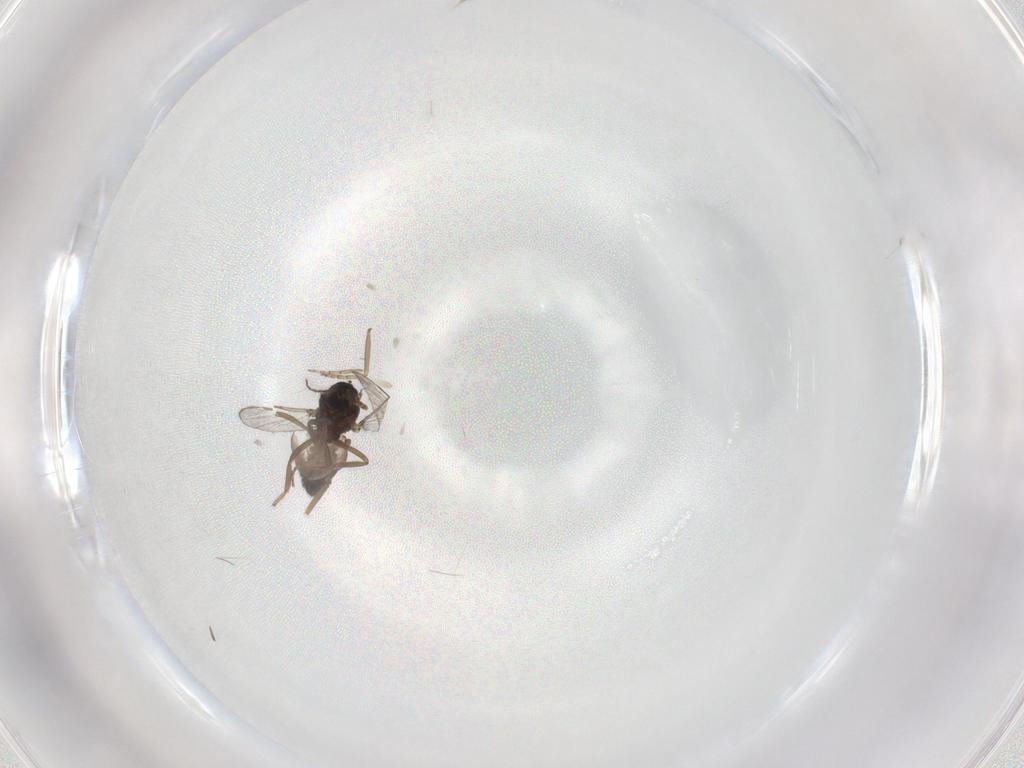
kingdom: Animalia
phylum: Arthropoda
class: Insecta
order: Diptera
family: Ceratopogonidae
